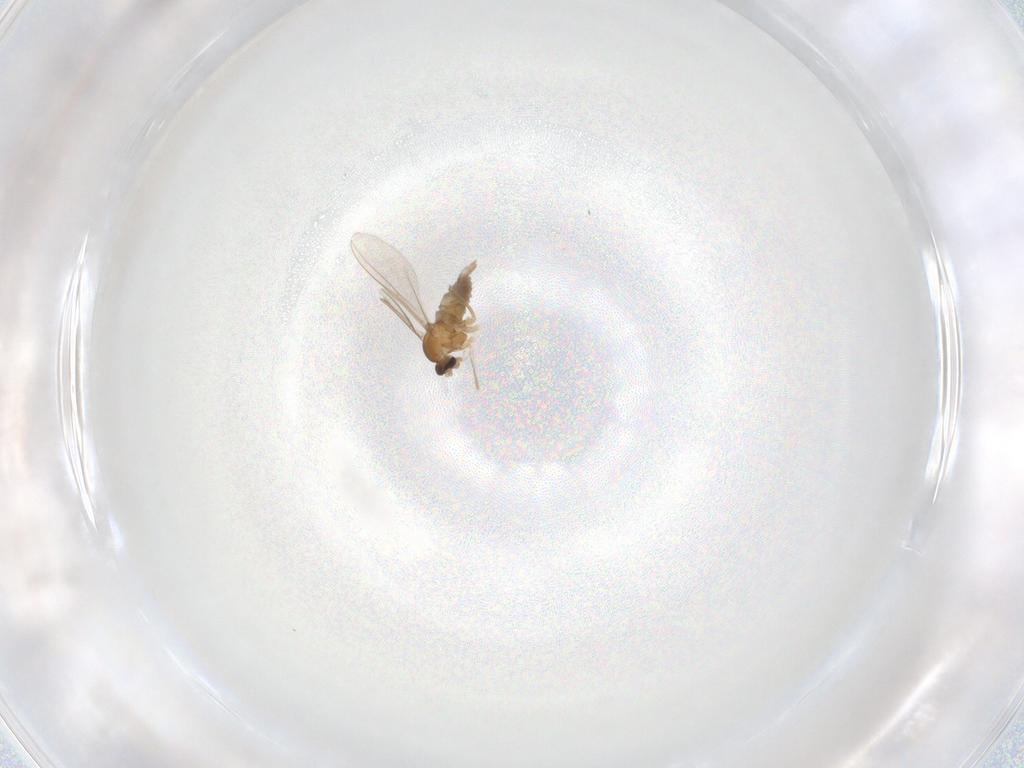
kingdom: Animalia
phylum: Arthropoda
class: Insecta
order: Diptera
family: Cecidomyiidae
